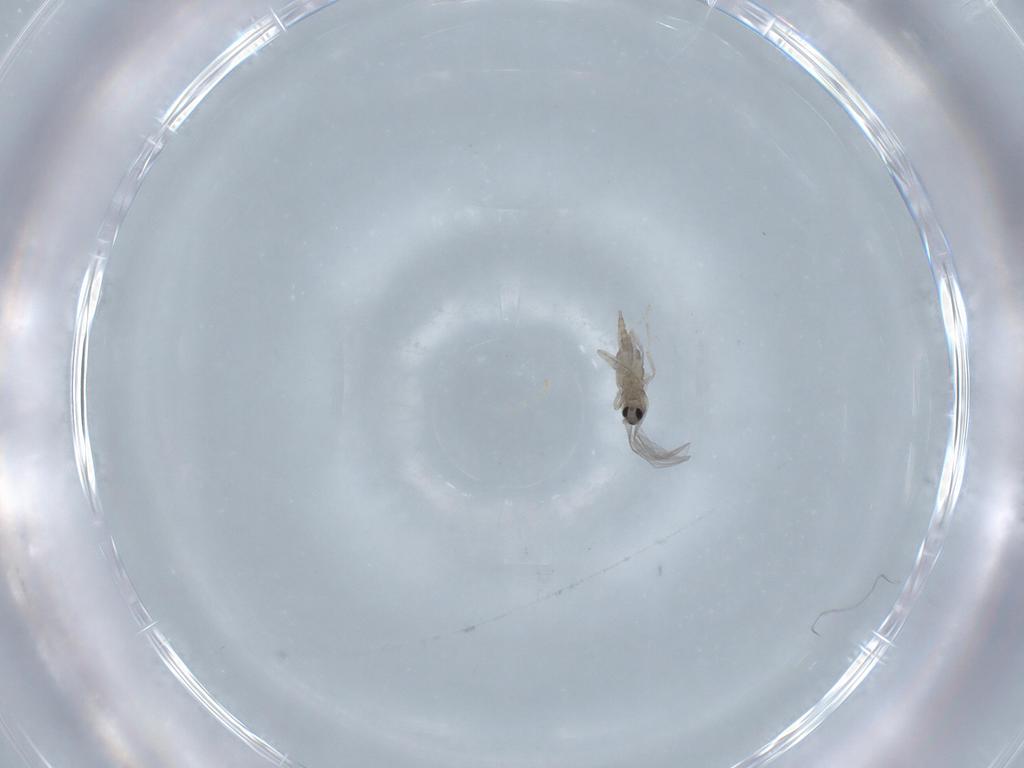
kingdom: Animalia
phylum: Arthropoda
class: Insecta
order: Diptera
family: Cecidomyiidae
